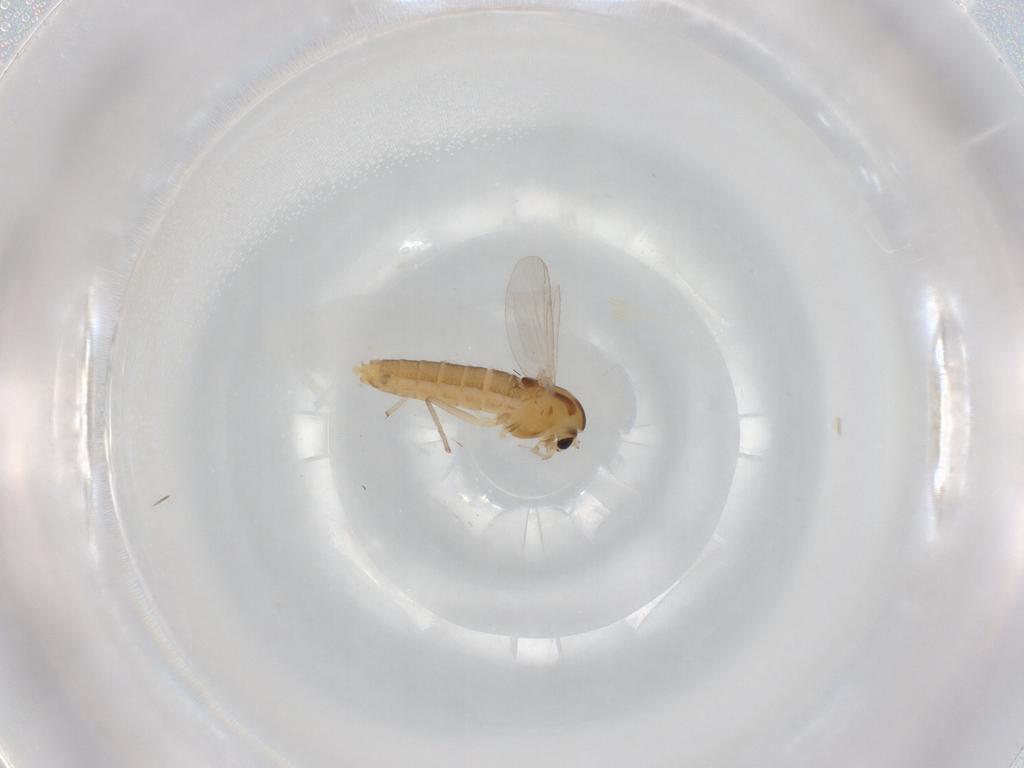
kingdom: Animalia
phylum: Arthropoda
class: Insecta
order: Diptera
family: Chironomidae
